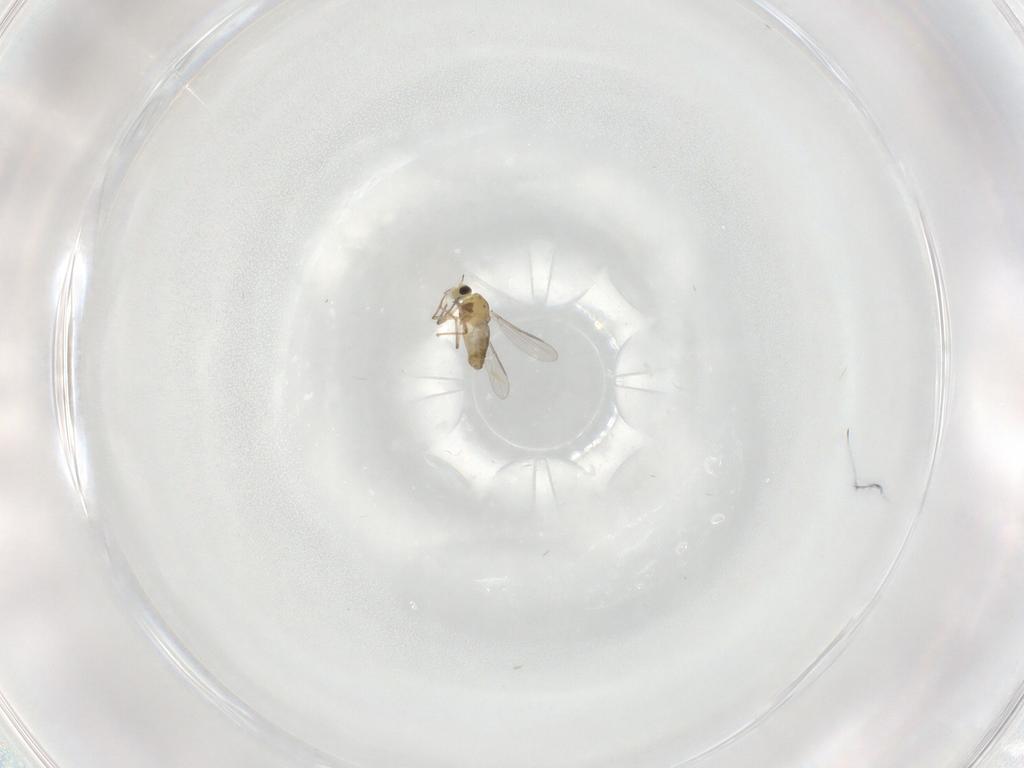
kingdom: Animalia
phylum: Arthropoda
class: Insecta
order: Diptera
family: Chironomidae
